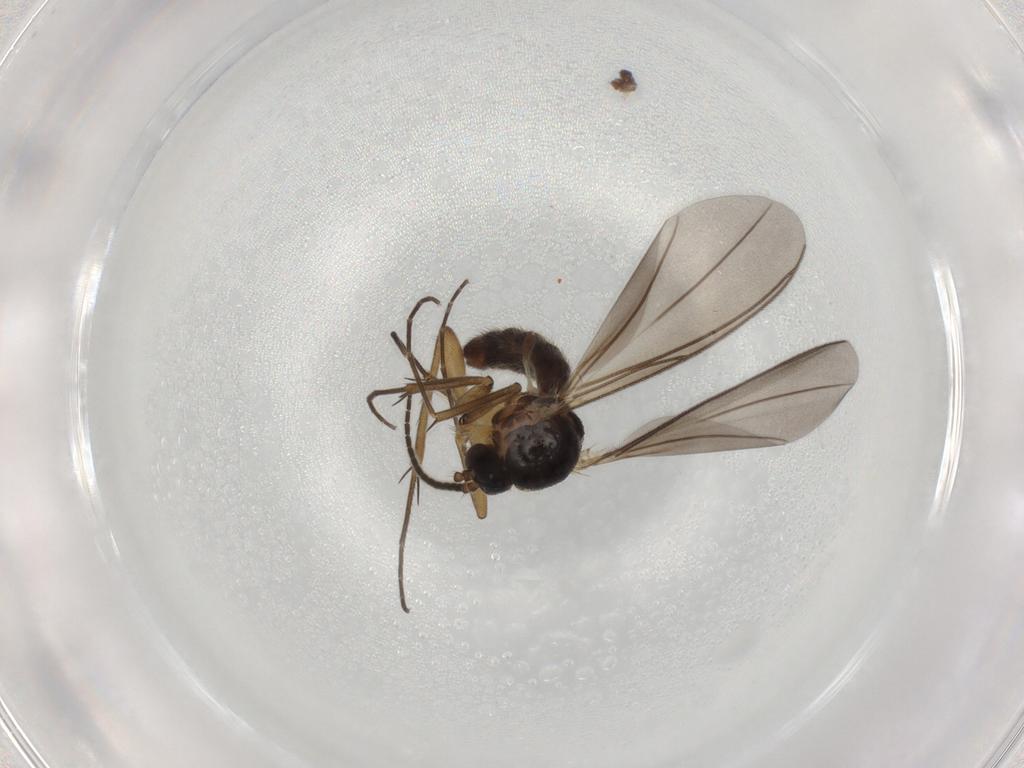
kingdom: Animalia
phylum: Arthropoda
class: Insecta
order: Diptera
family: Mycetophilidae
